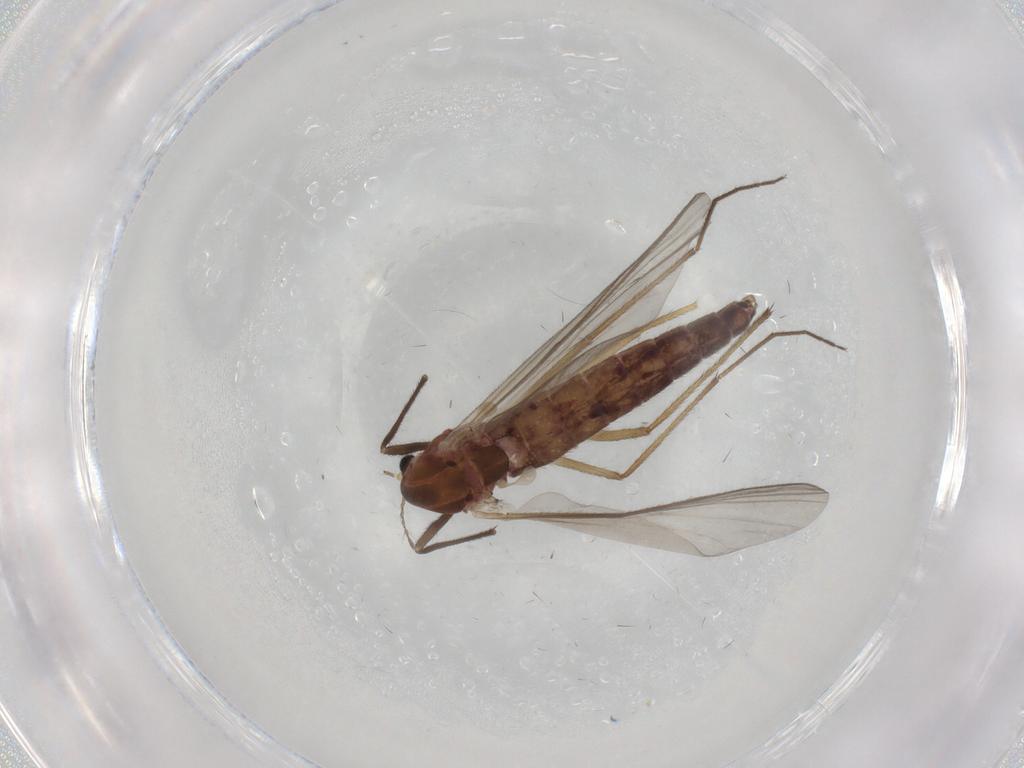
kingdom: Animalia
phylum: Arthropoda
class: Insecta
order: Diptera
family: Chironomidae
